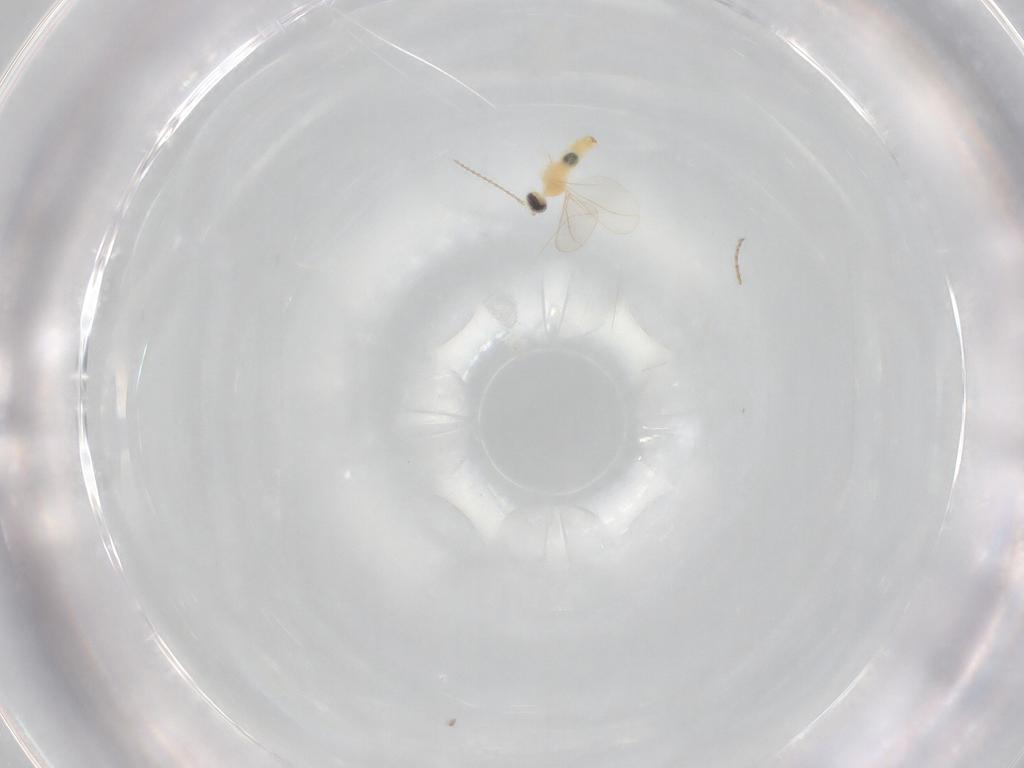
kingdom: Animalia
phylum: Arthropoda
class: Insecta
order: Diptera
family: Cecidomyiidae
